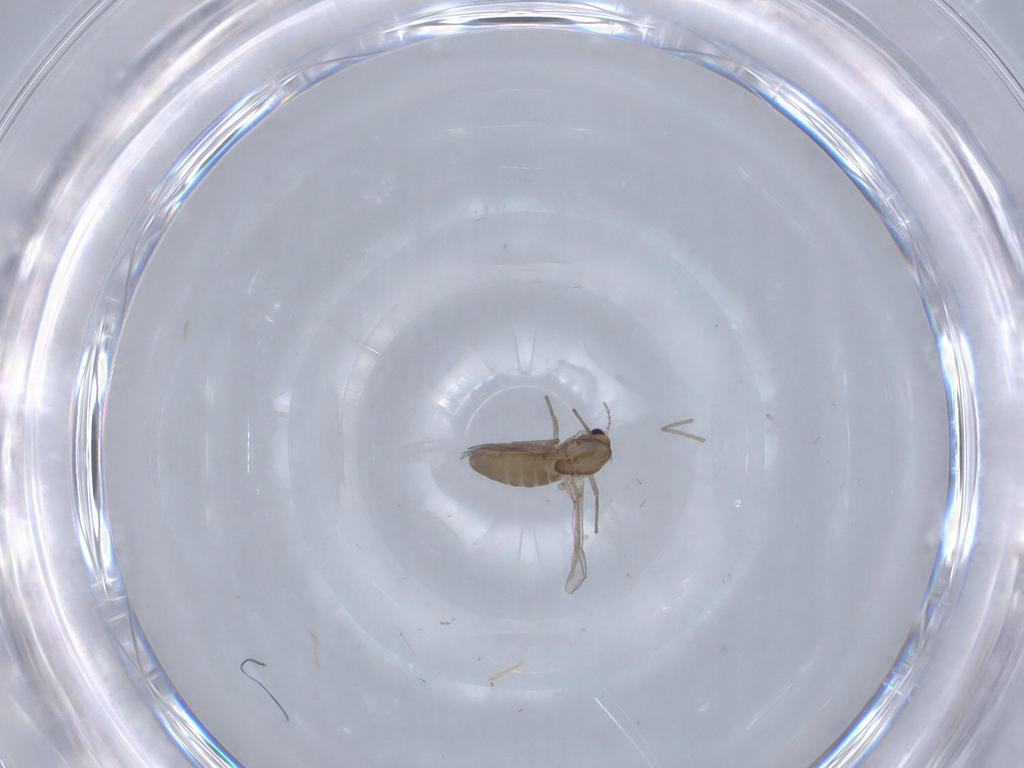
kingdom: Animalia
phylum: Arthropoda
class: Insecta
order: Diptera
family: Chironomidae
